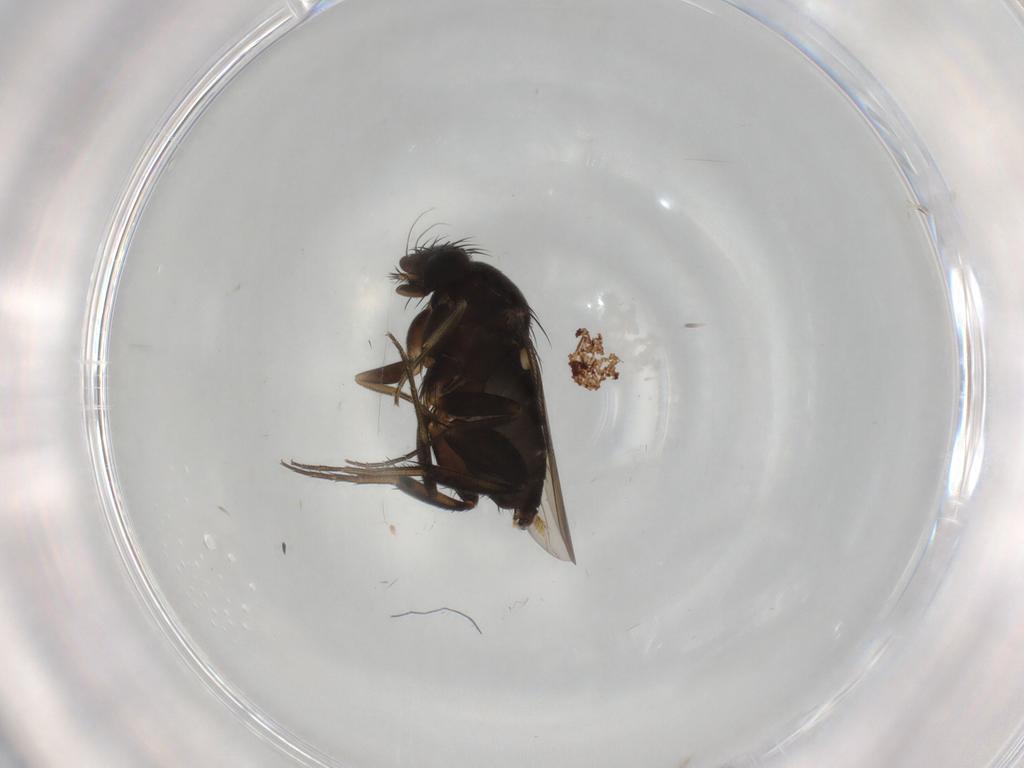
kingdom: Animalia
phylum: Arthropoda
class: Insecta
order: Diptera
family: Phoridae
